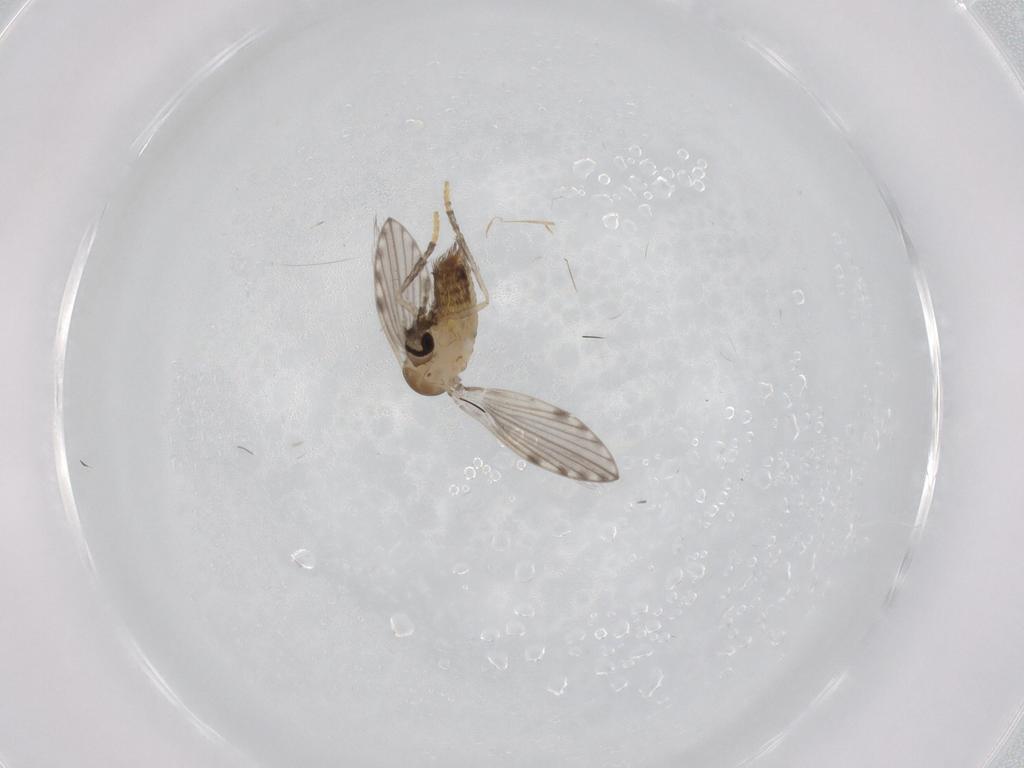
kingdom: Animalia
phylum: Arthropoda
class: Insecta
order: Diptera
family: Psychodidae
